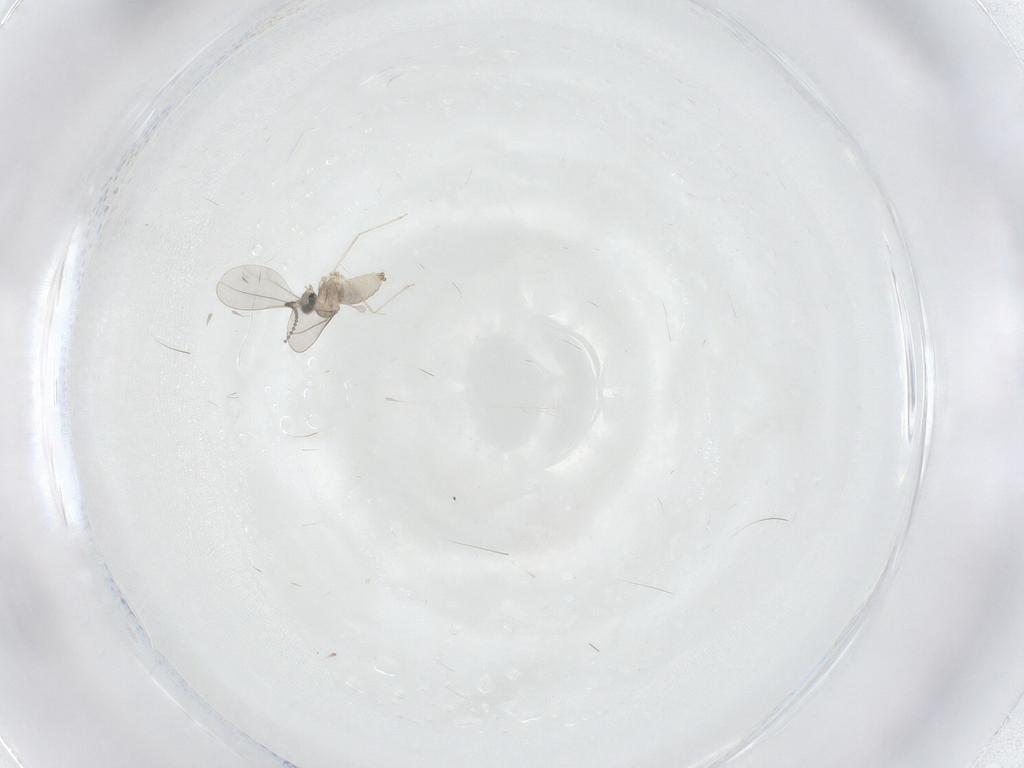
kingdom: Animalia
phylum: Arthropoda
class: Insecta
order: Diptera
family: Cecidomyiidae
